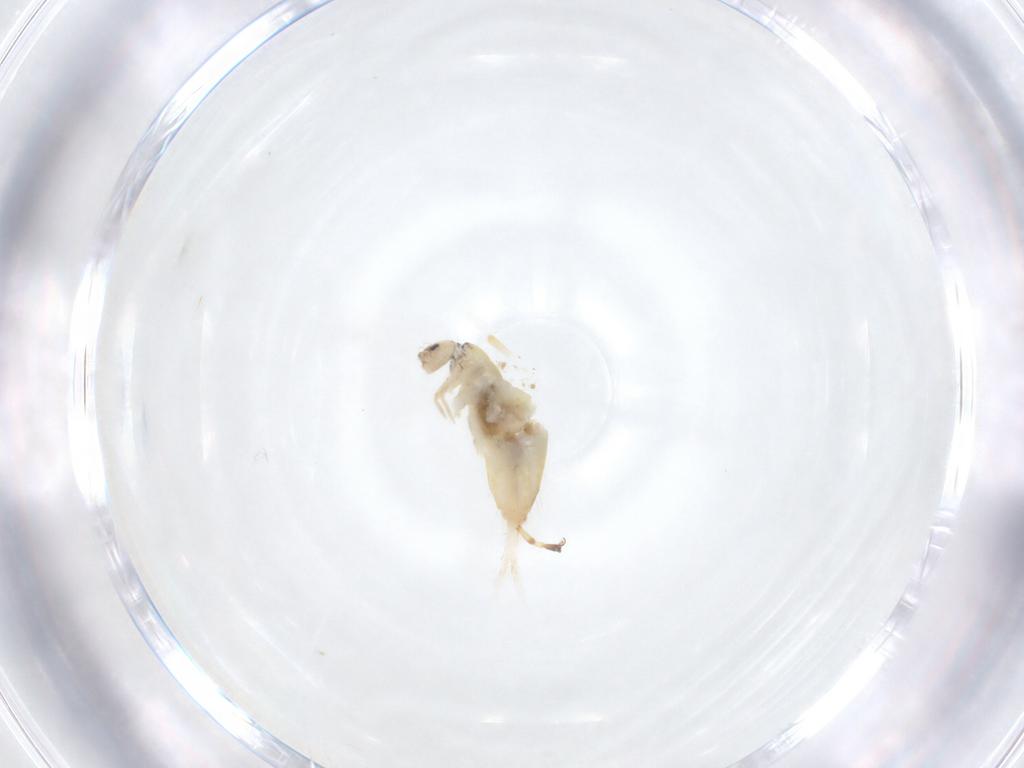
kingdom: Animalia
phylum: Arthropoda
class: Collembola
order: Entomobryomorpha
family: Entomobryidae
